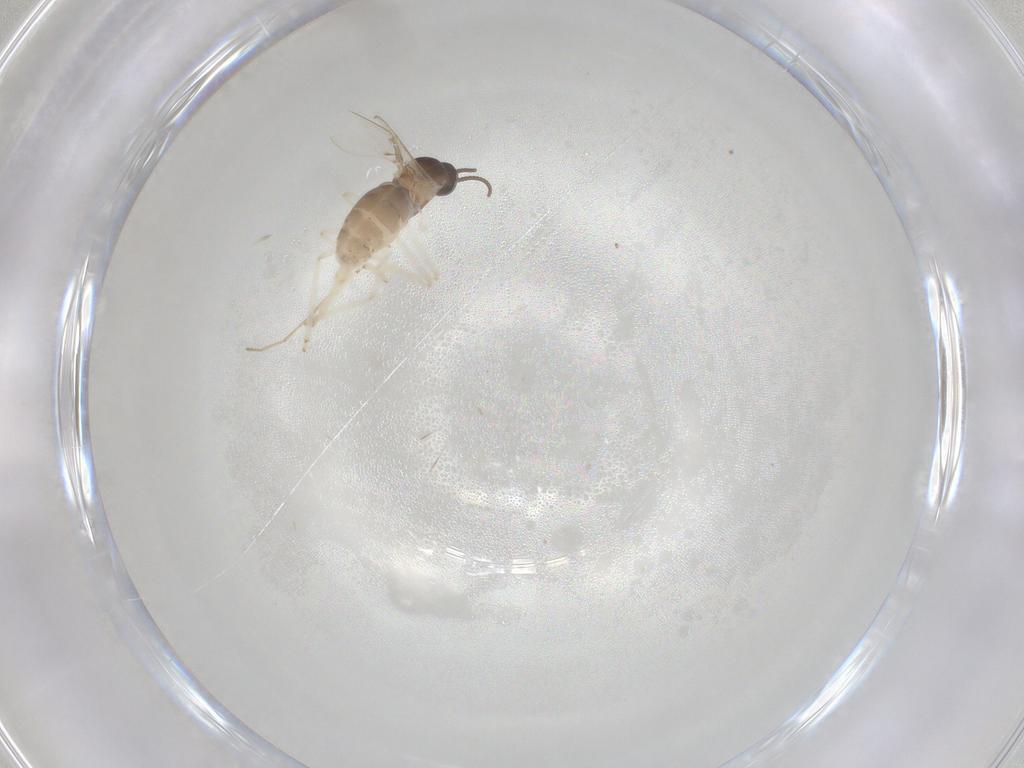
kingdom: Animalia
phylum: Arthropoda
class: Insecta
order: Diptera
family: Cecidomyiidae
